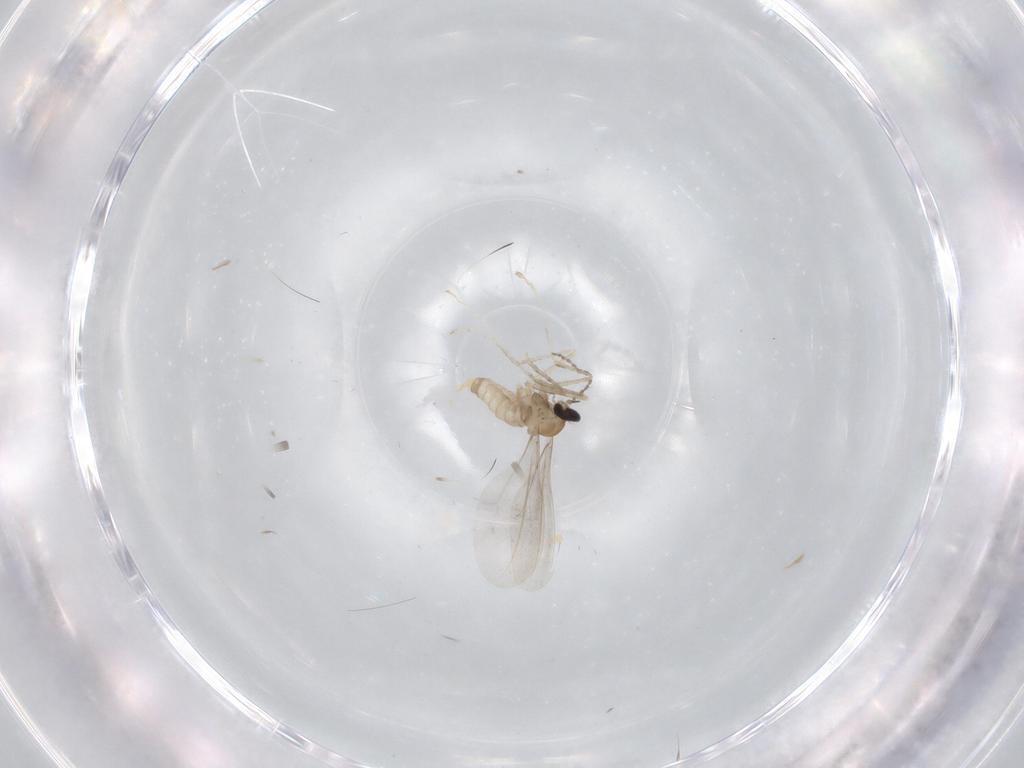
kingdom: Animalia
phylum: Arthropoda
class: Insecta
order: Diptera
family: Cecidomyiidae
